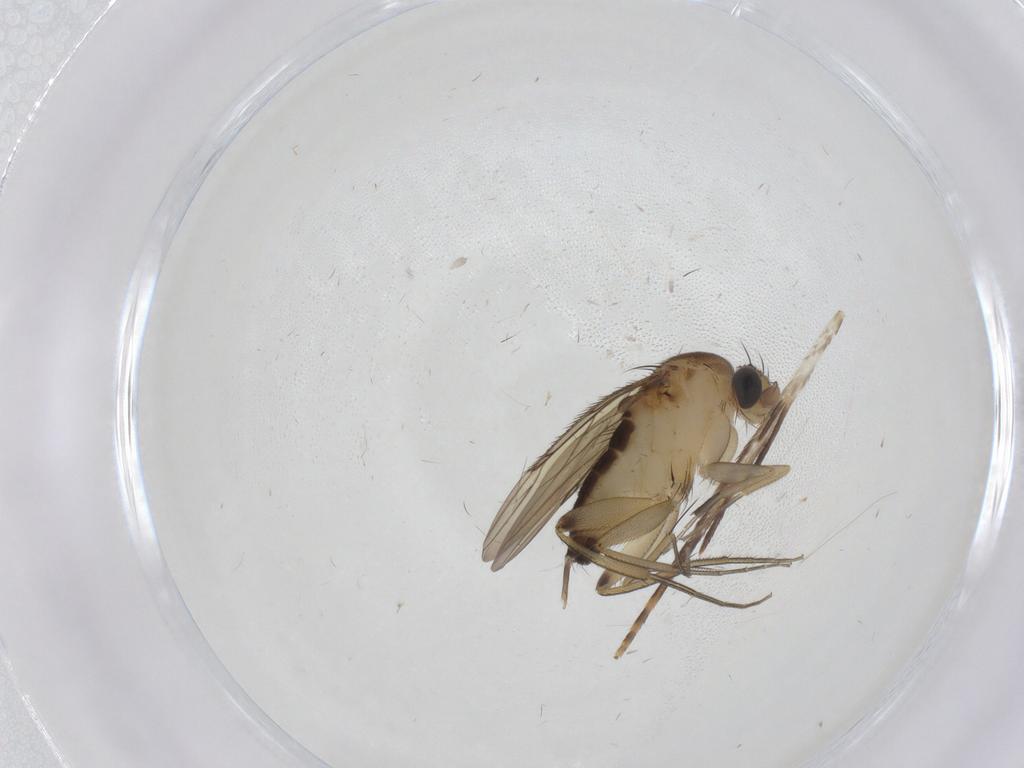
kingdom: Animalia
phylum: Arthropoda
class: Insecta
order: Diptera
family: Phoridae
